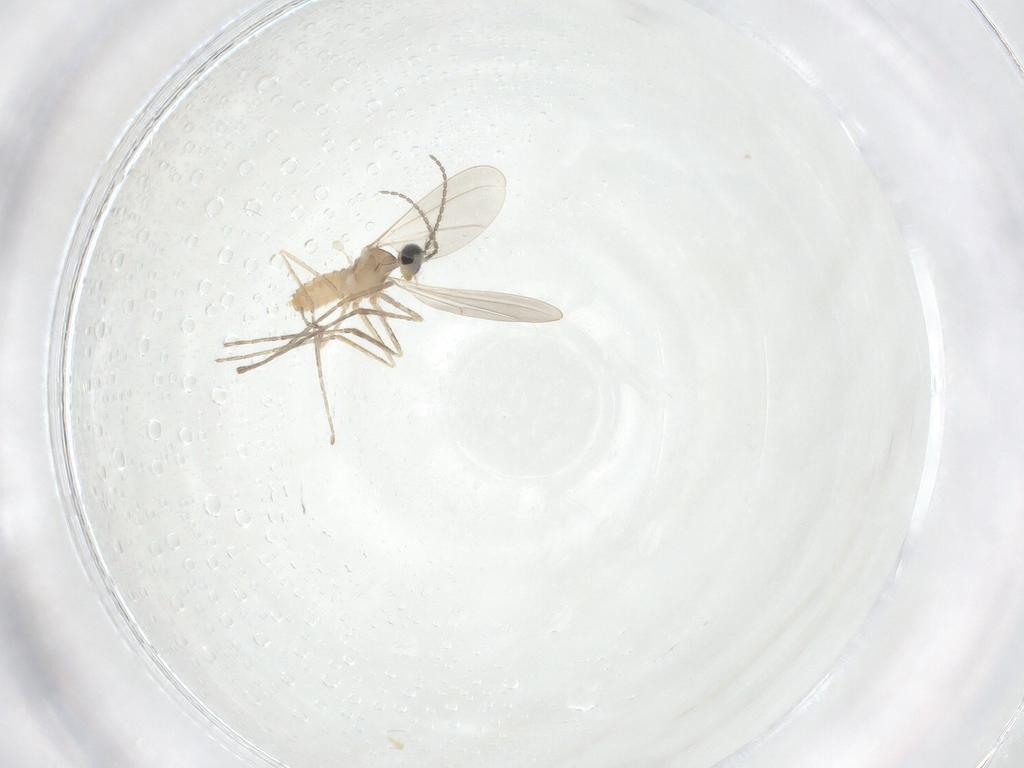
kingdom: Animalia
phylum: Arthropoda
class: Insecta
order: Diptera
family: Cecidomyiidae
